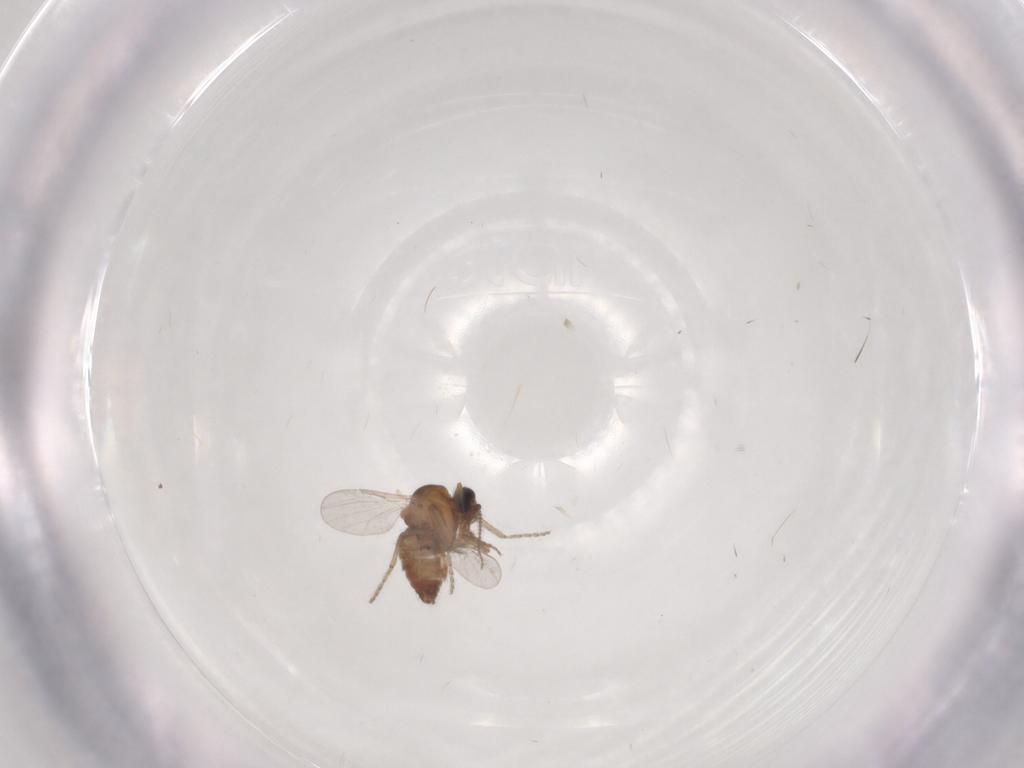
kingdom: Animalia
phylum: Arthropoda
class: Insecta
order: Diptera
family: Ceratopogonidae
